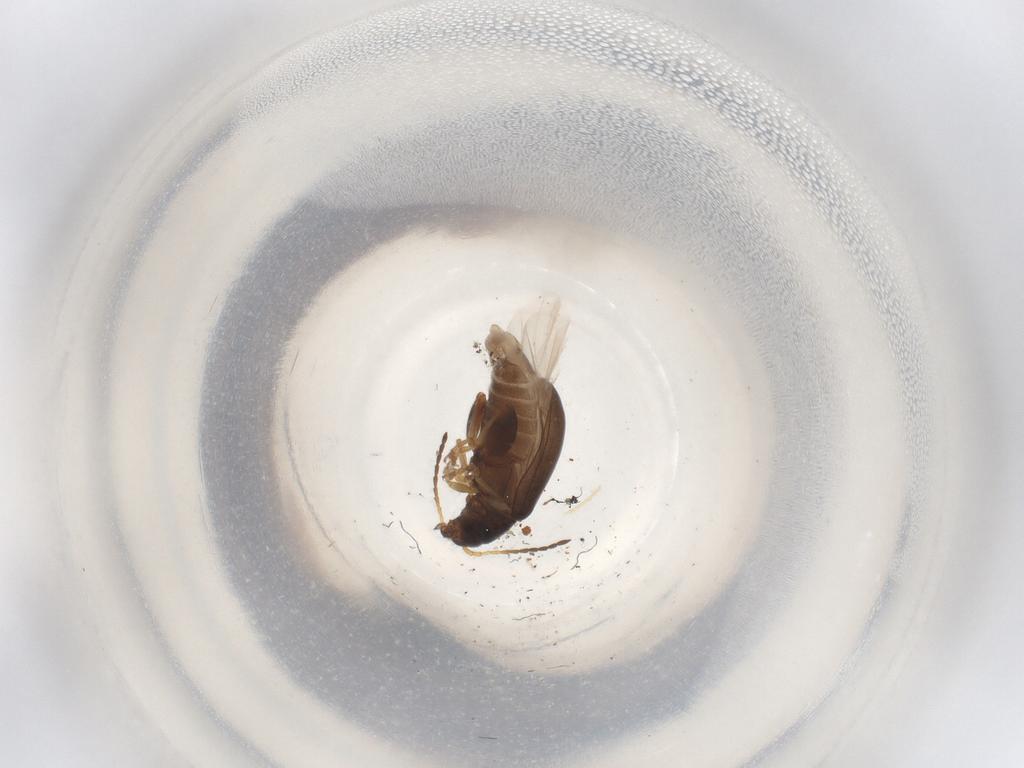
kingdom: Animalia
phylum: Arthropoda
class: Insecta
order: Coleoptera
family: Chrysomelidae
